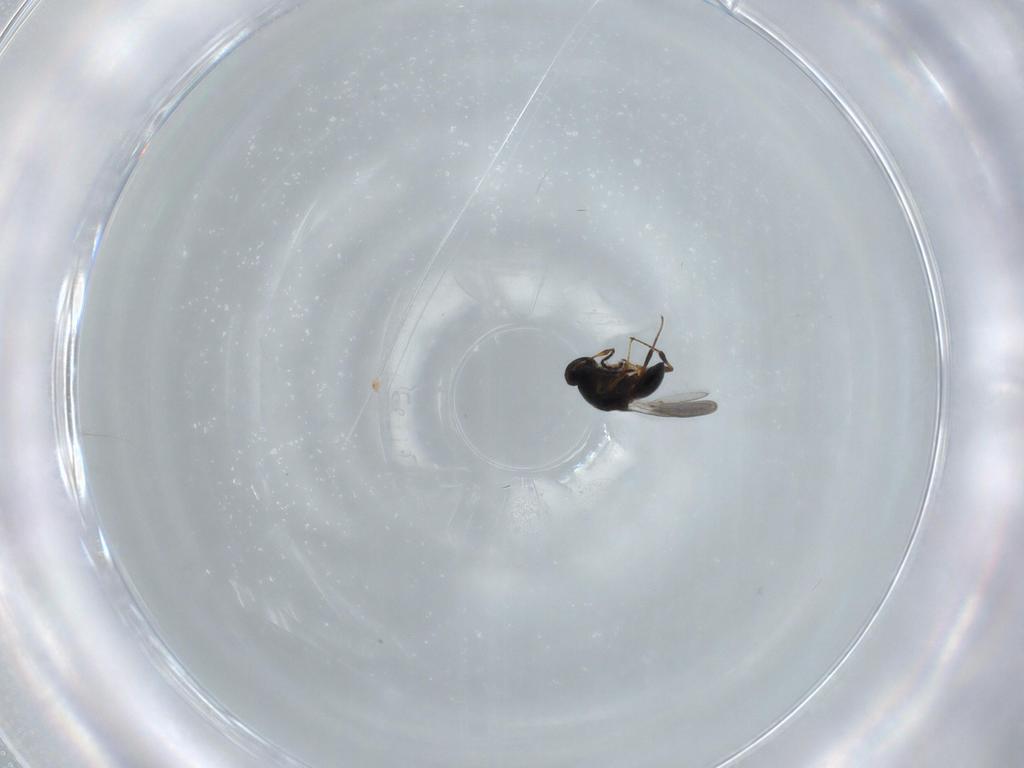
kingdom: Animalia
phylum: Arthropoda
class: Insecta
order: Hymenoptera
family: Platygastridae
